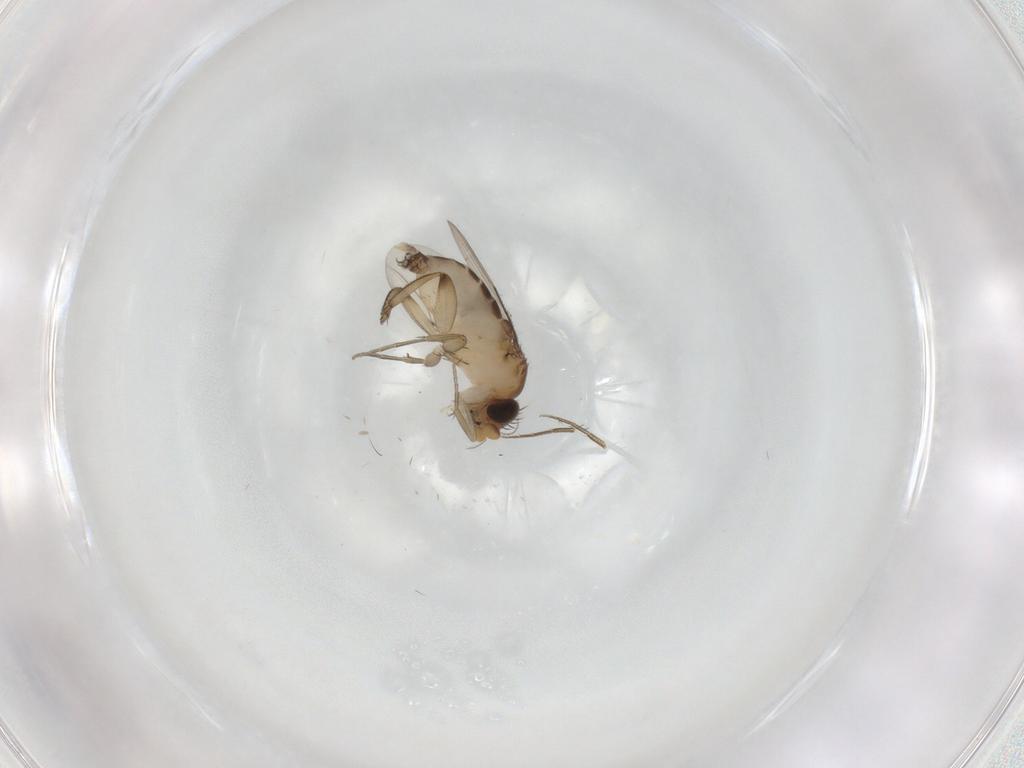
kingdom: Animalia
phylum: Arthropoda
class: Insecta
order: Diptera
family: Phoridae
